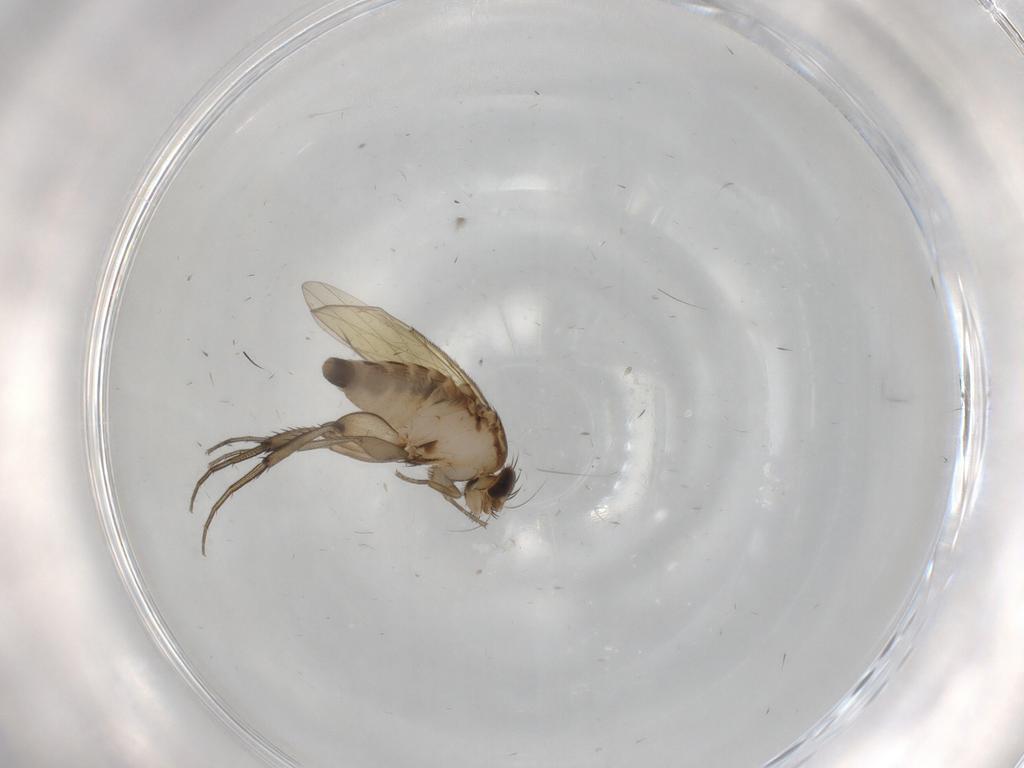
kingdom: Animalia
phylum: Arthropoda
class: Insecta
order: Diptera
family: Phoridae
